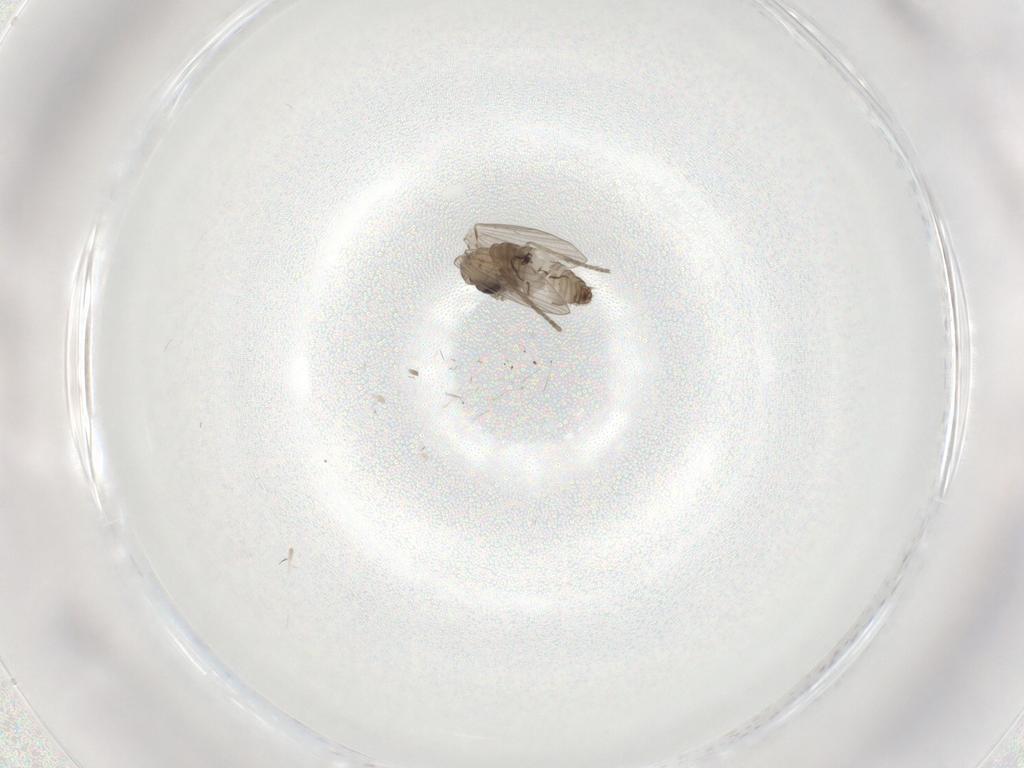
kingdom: Animalia
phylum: Arthropoda
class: Insecta
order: Diptera
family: Psychodidae
